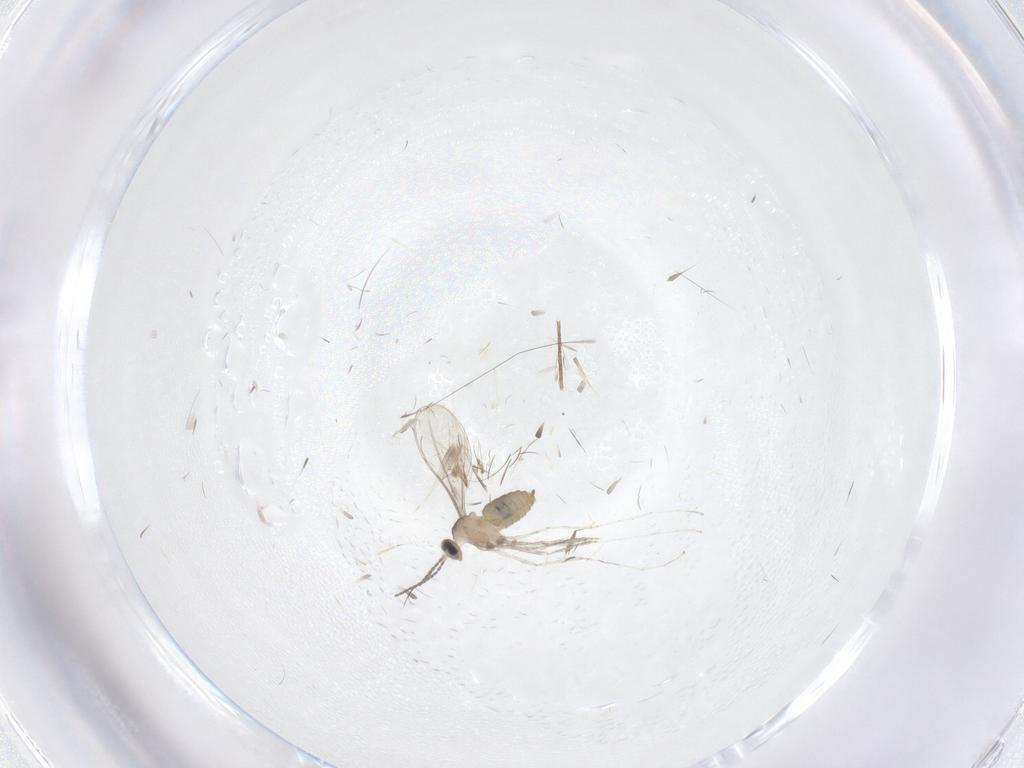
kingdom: Animalia
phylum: Arthropoda
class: Insecta
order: Diptera
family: Cecidomyiidae
